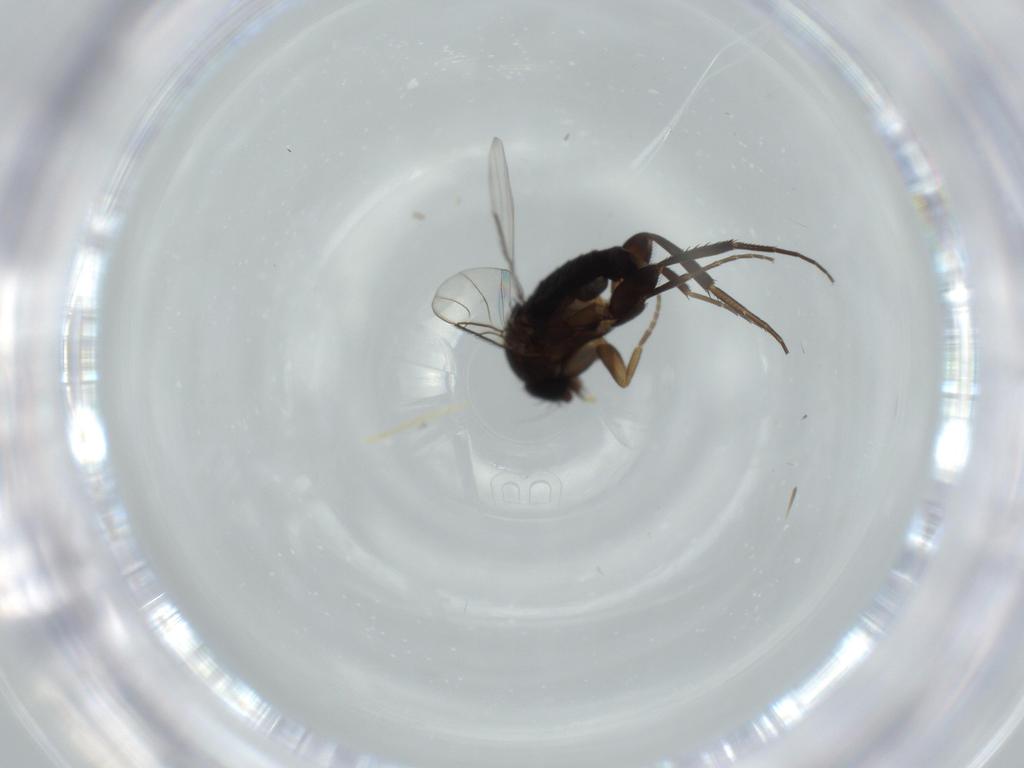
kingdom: Animalia
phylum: Arthropoda
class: Insecta
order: Diptera
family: Phoridae
